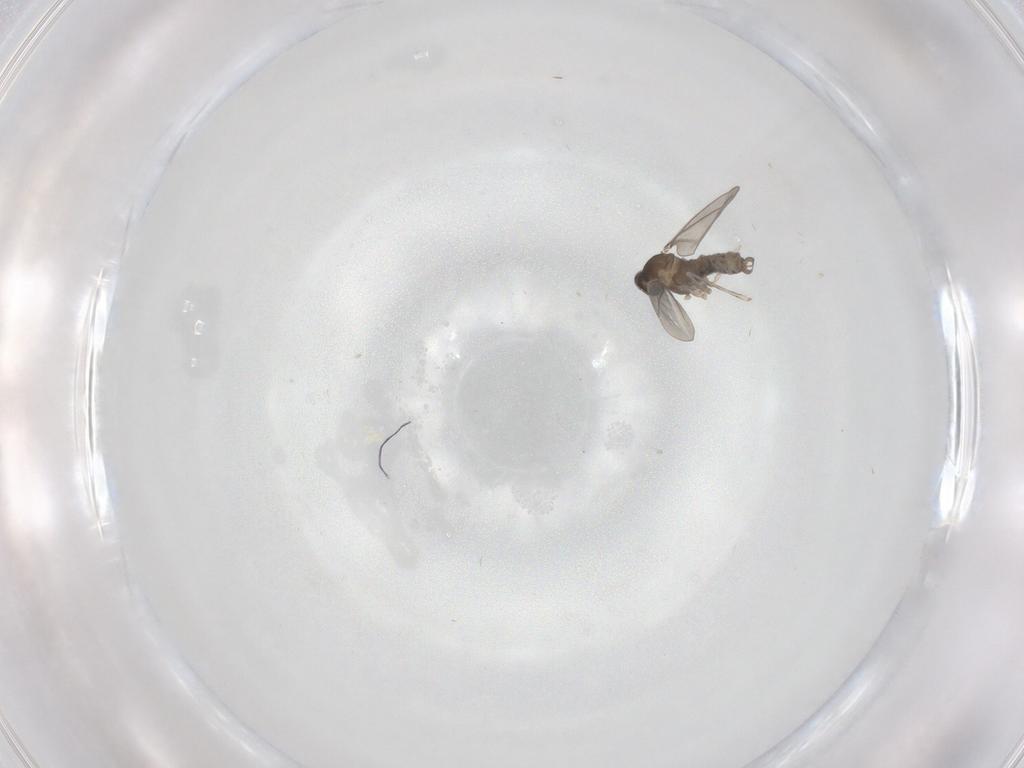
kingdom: Animalia
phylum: Arthropoda
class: Insecta
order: Diptera
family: Cecidomyiidae
